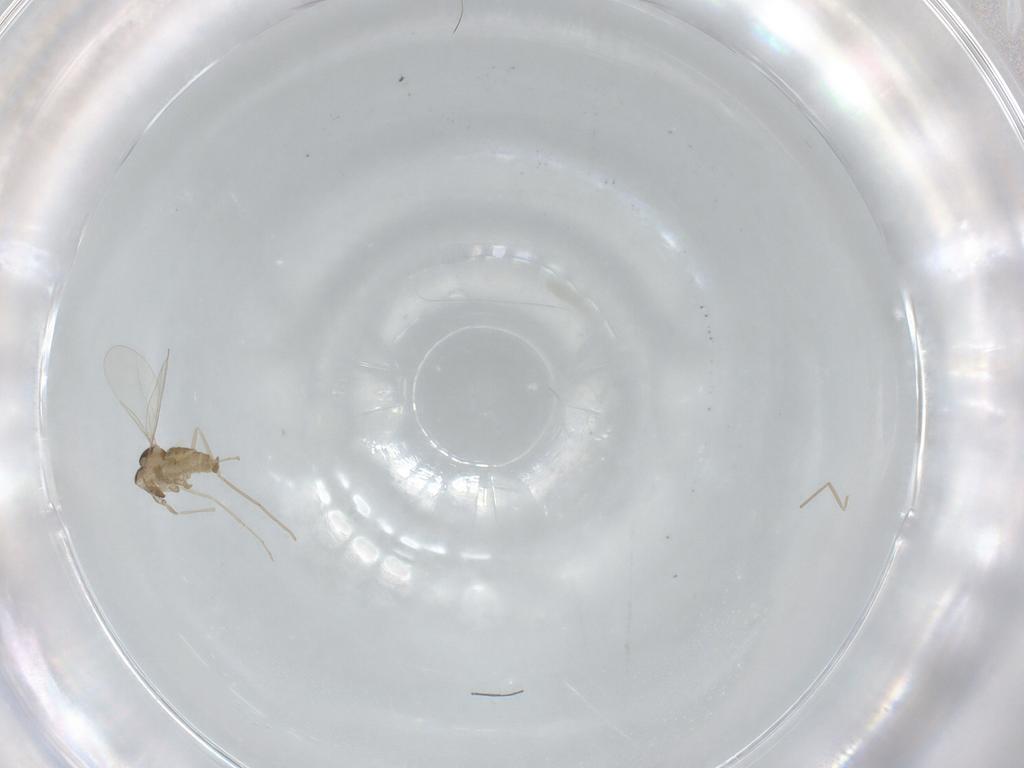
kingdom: Animalia
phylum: Arthropoda
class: Insecta
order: Diptera
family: Cecidomyiidae
